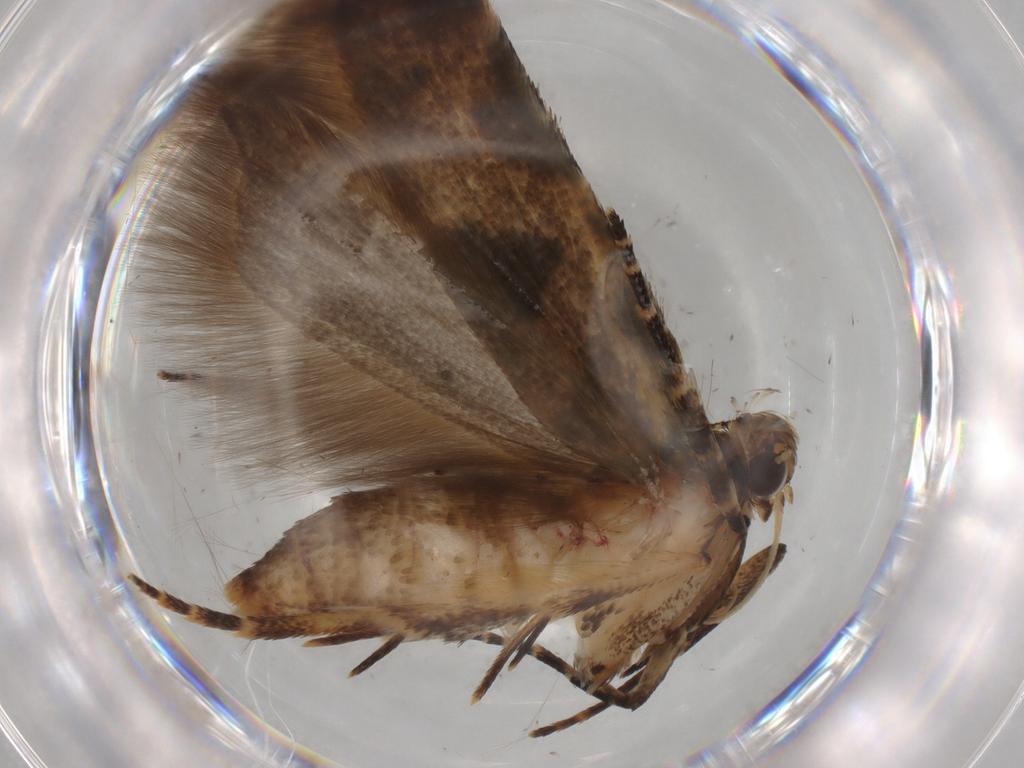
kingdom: Animalia
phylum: Arthropoda
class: Insecta
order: Lepidoptera
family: Gelechiidae
